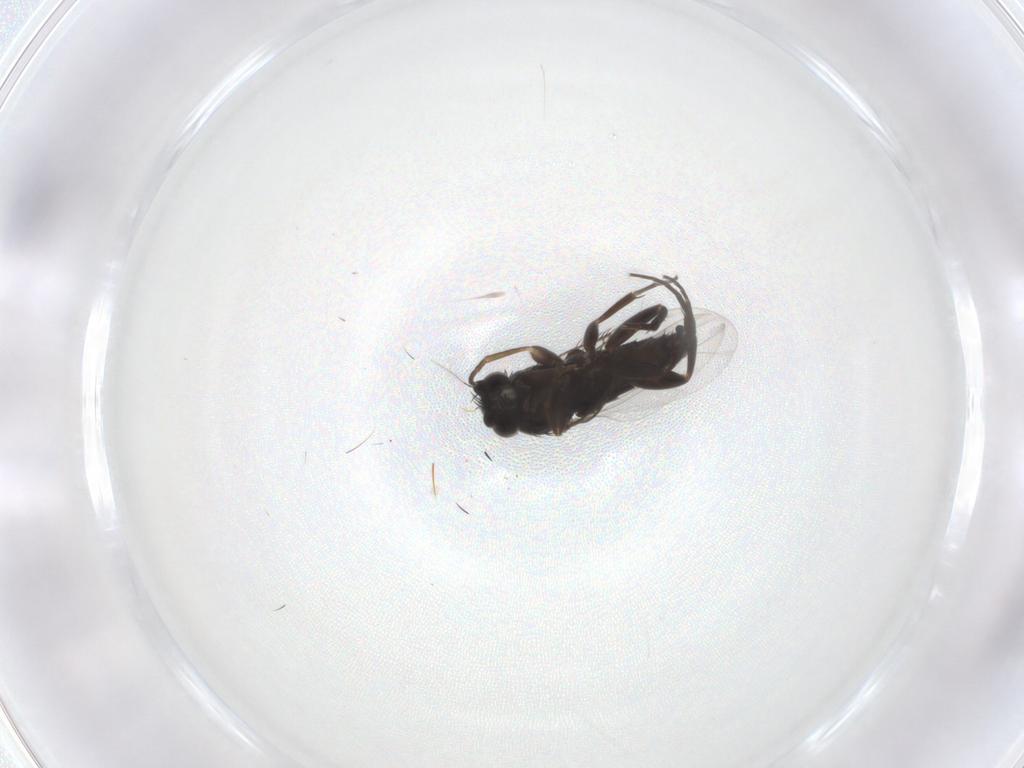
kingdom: Animalia
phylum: Arthropoda
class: Insecta
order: Diptera
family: Phoridae
